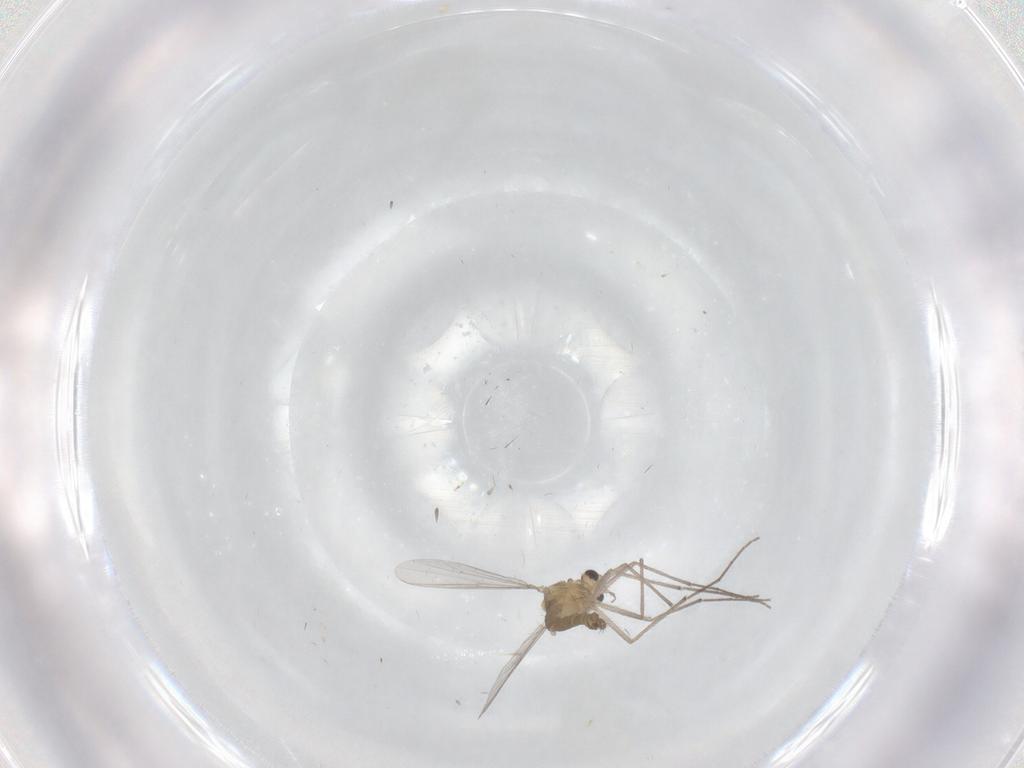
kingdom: Animalia
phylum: Arthropoda
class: Insecta
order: Diptera
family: Chironomidae
